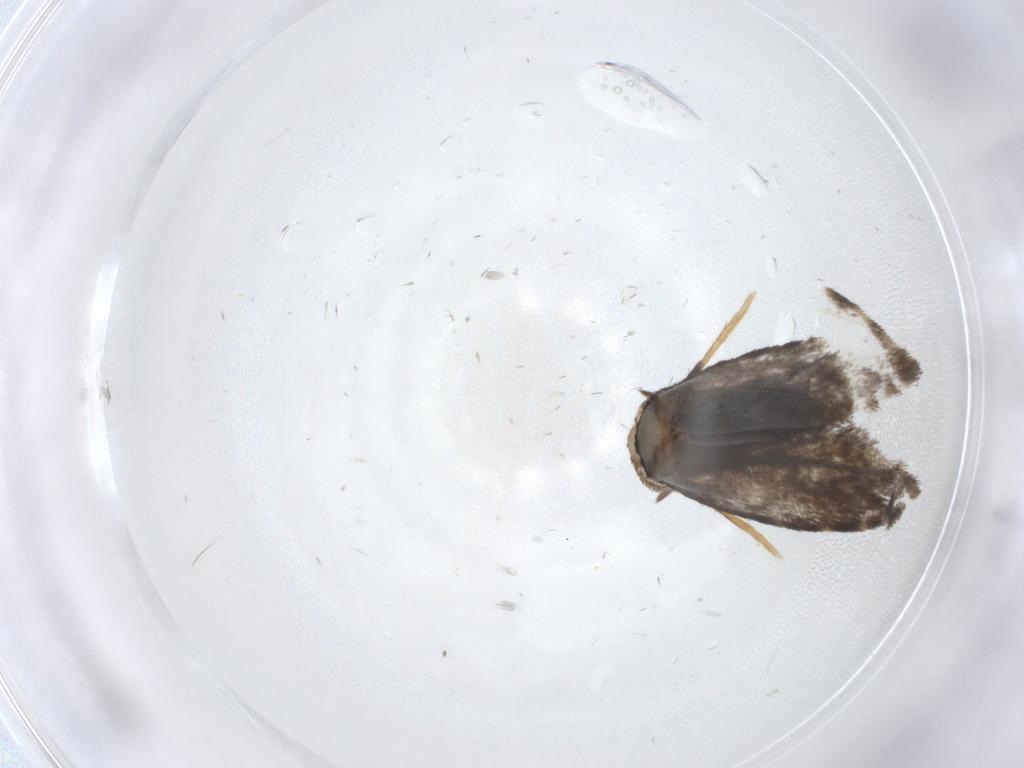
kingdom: Animalia
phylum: Arthropoda
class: Insecta
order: Lepidoptera
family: Psychidae
